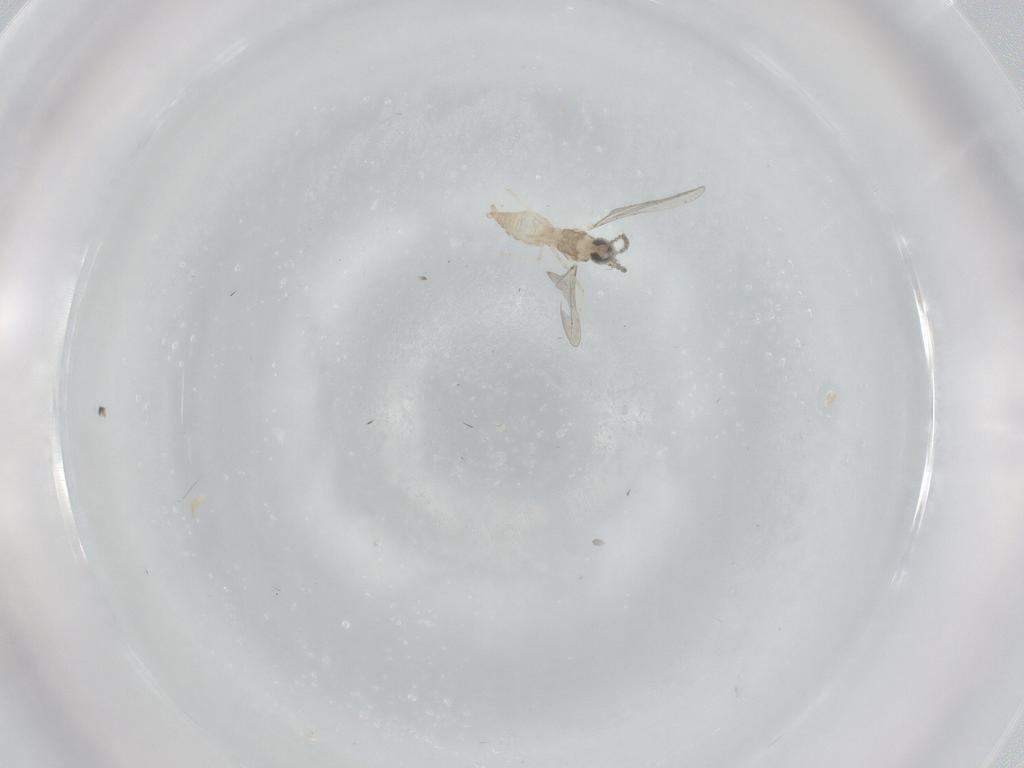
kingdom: Animalia
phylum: Arthropoda
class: Insecta
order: Diptera
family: Cecidomyiidae
